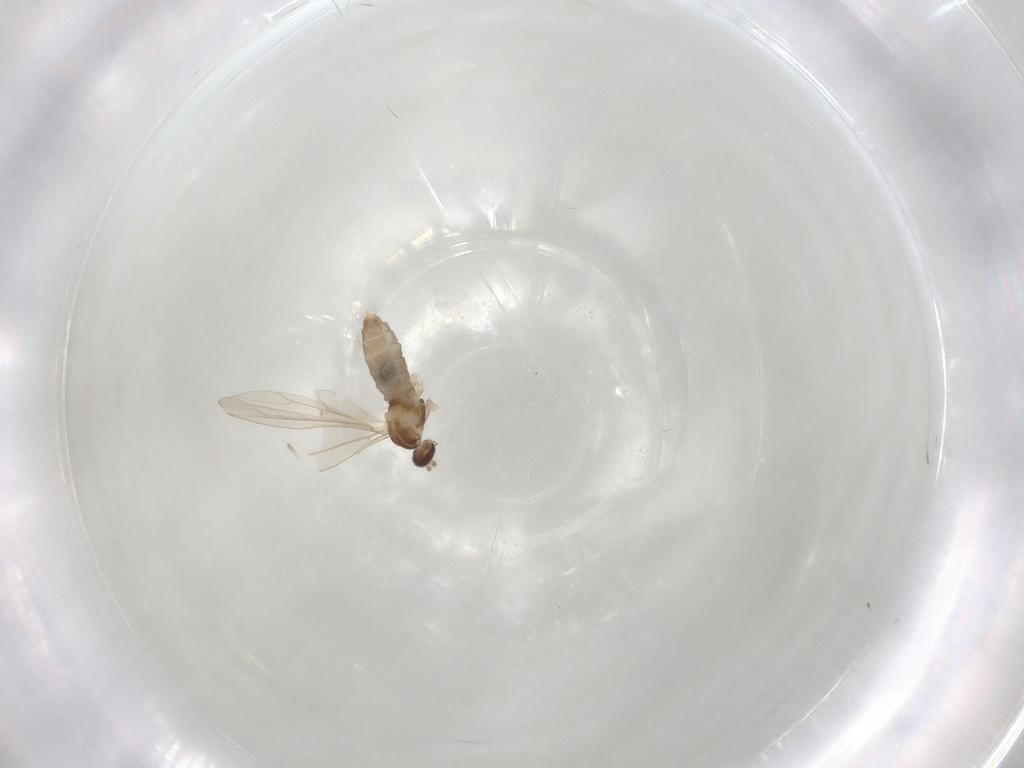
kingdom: Animalia
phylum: Arthropoda
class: Insecta
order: Diptera
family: Cecidomyiidae
